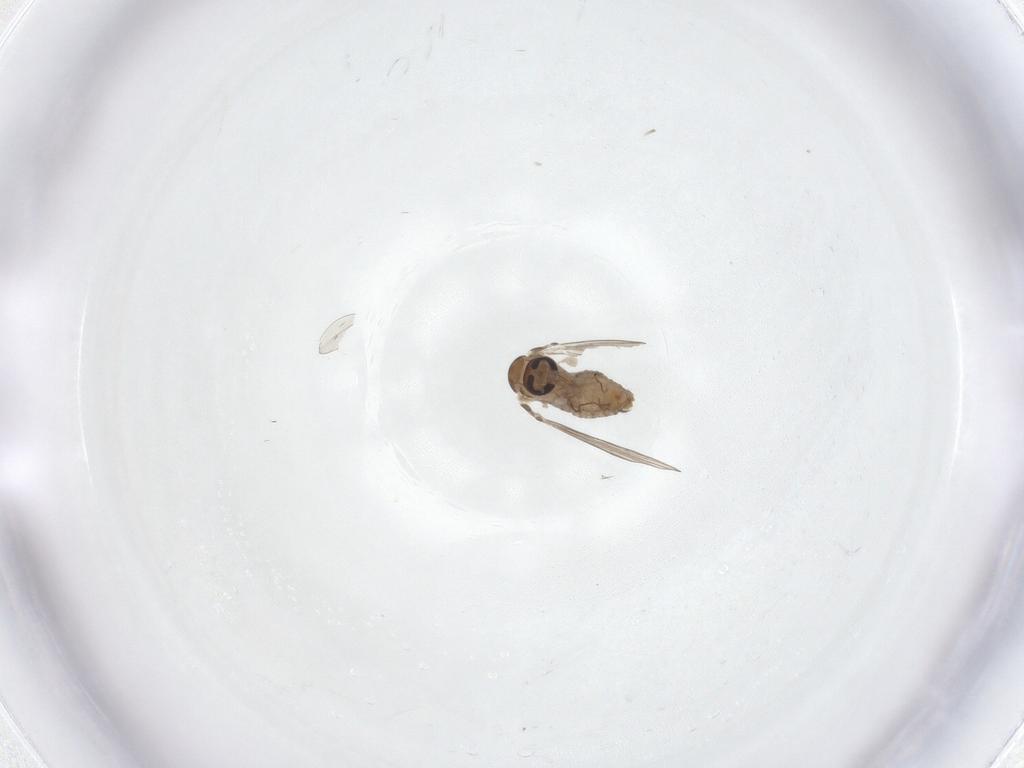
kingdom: Animalia
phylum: Arthropoda
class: Insecta
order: Diptera
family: Psychodidae
